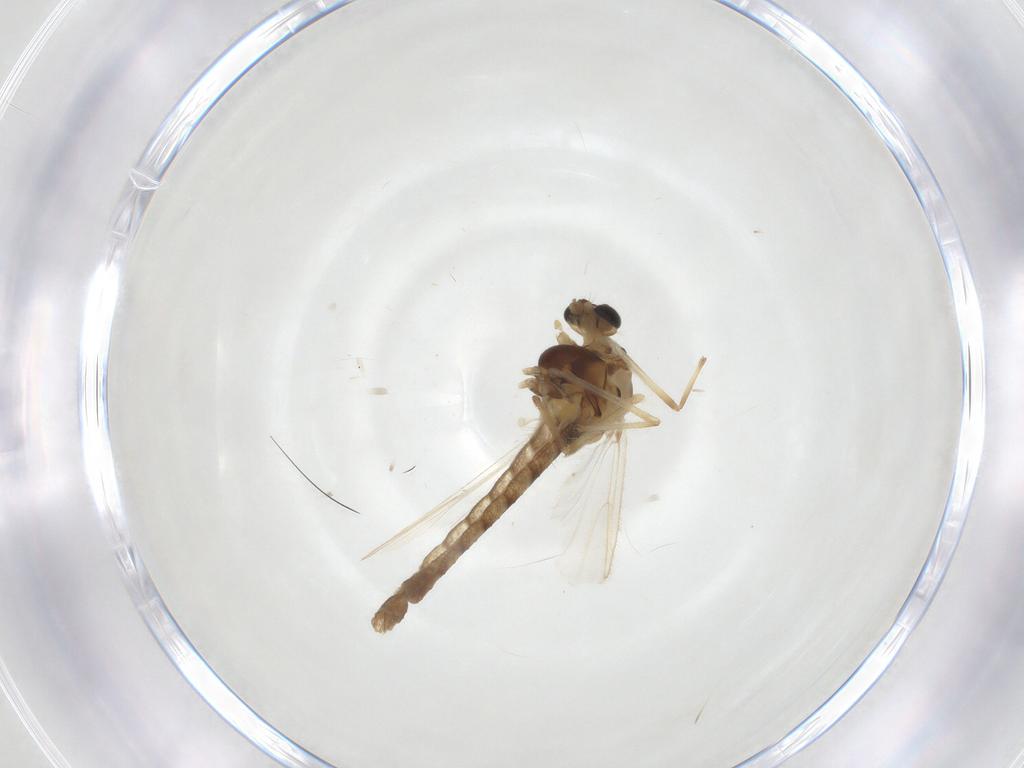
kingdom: Animalia
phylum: Arthropoda
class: Insecta
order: Diptera
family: Chironomidae
